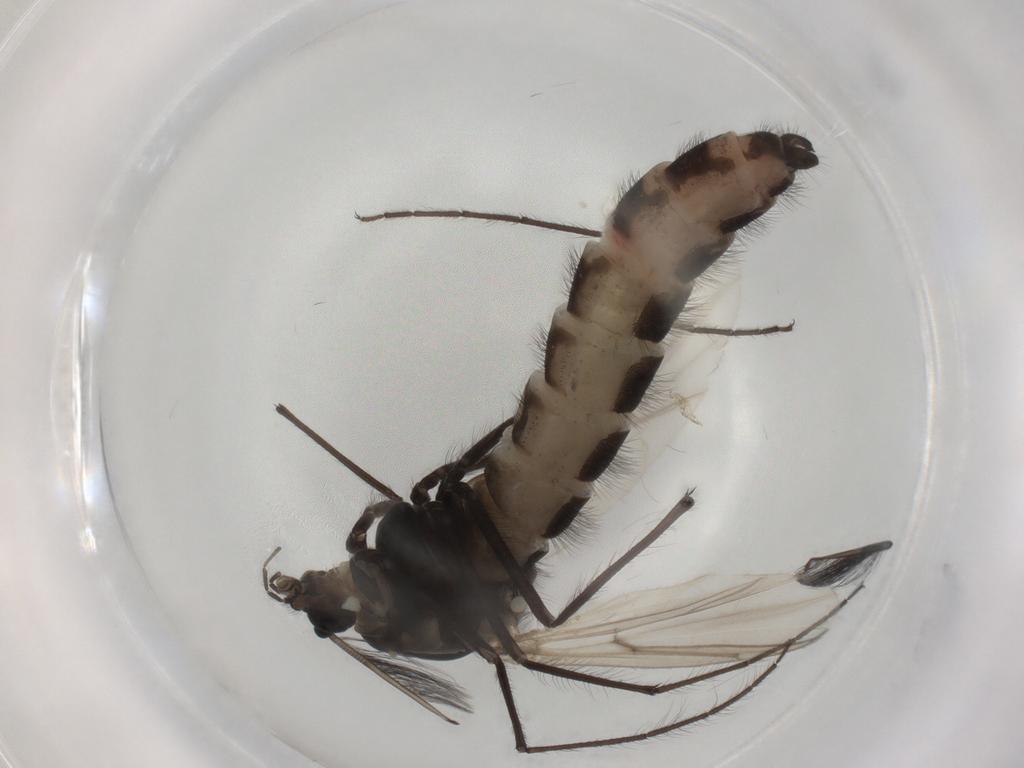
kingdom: Animalia
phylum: Arthropoda
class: Insecta
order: Diptera
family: Chironomidae
